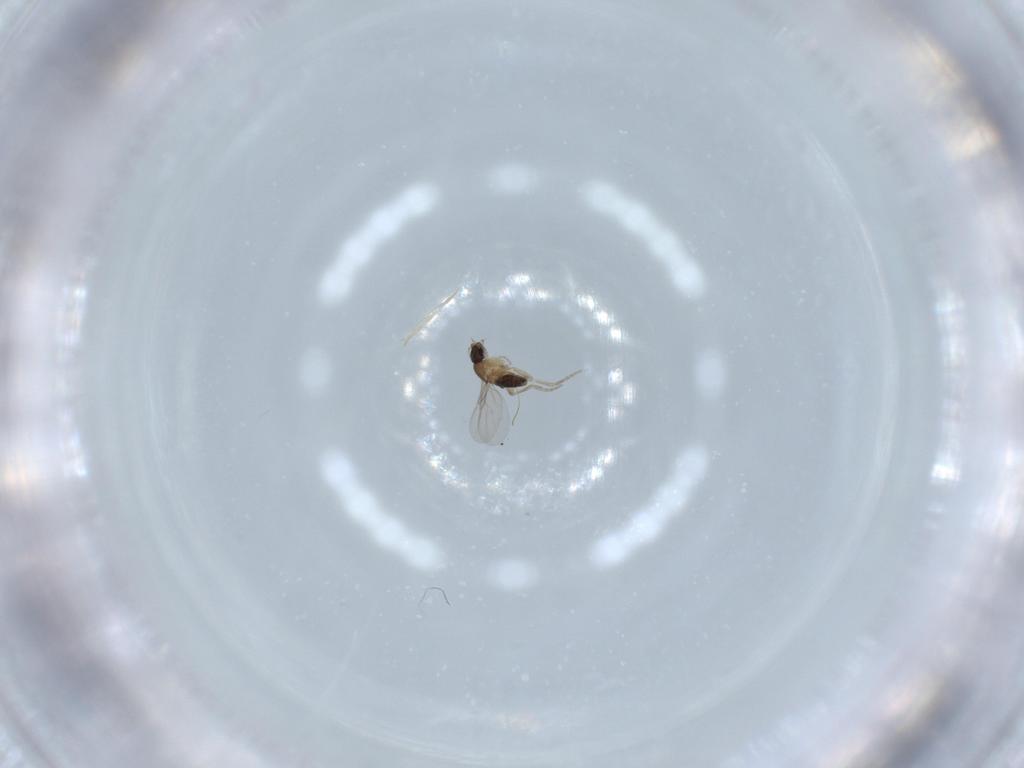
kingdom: Animalia
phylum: Arthropoda
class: Insecta
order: Diptera
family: Phoridae
